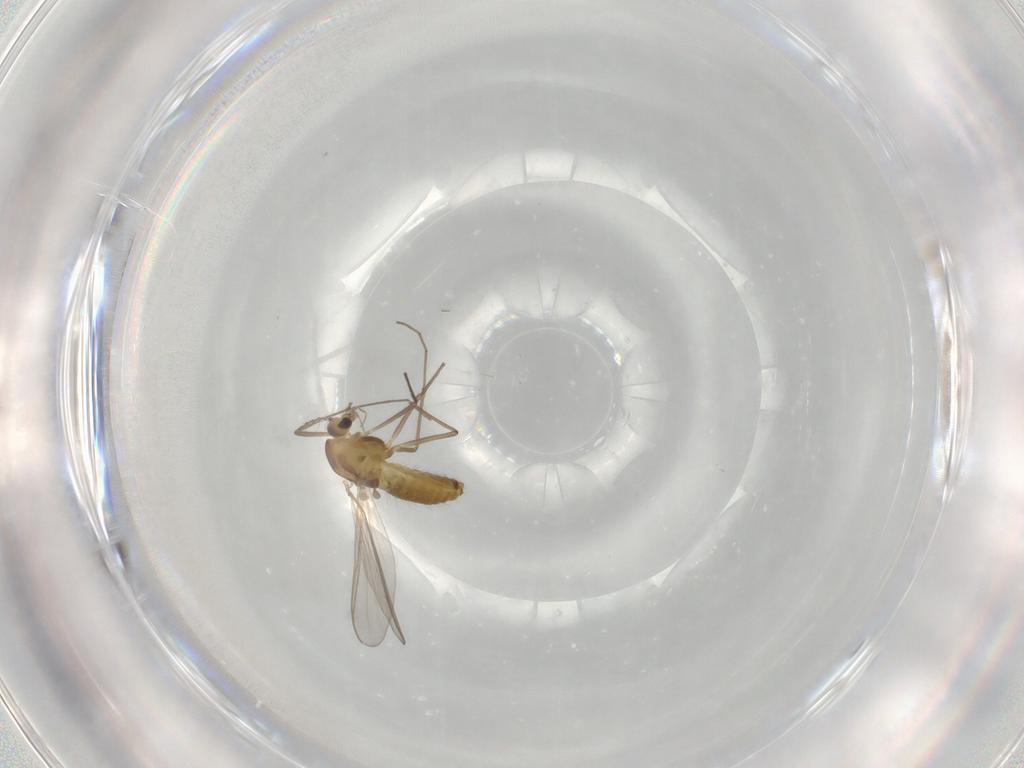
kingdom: Animalia
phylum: Arthropoda
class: Insecta
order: Diptera
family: Chironomidae
